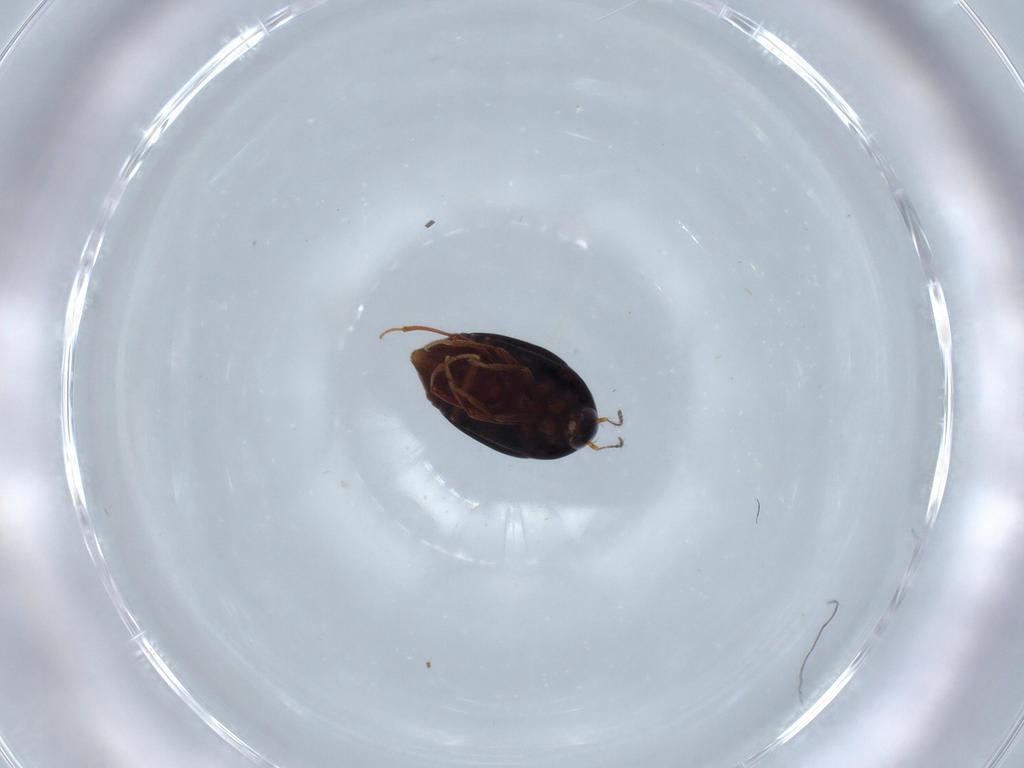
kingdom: Animalia
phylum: Arthropoda
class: Insecta
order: Coleoptera
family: Staphylinidae
